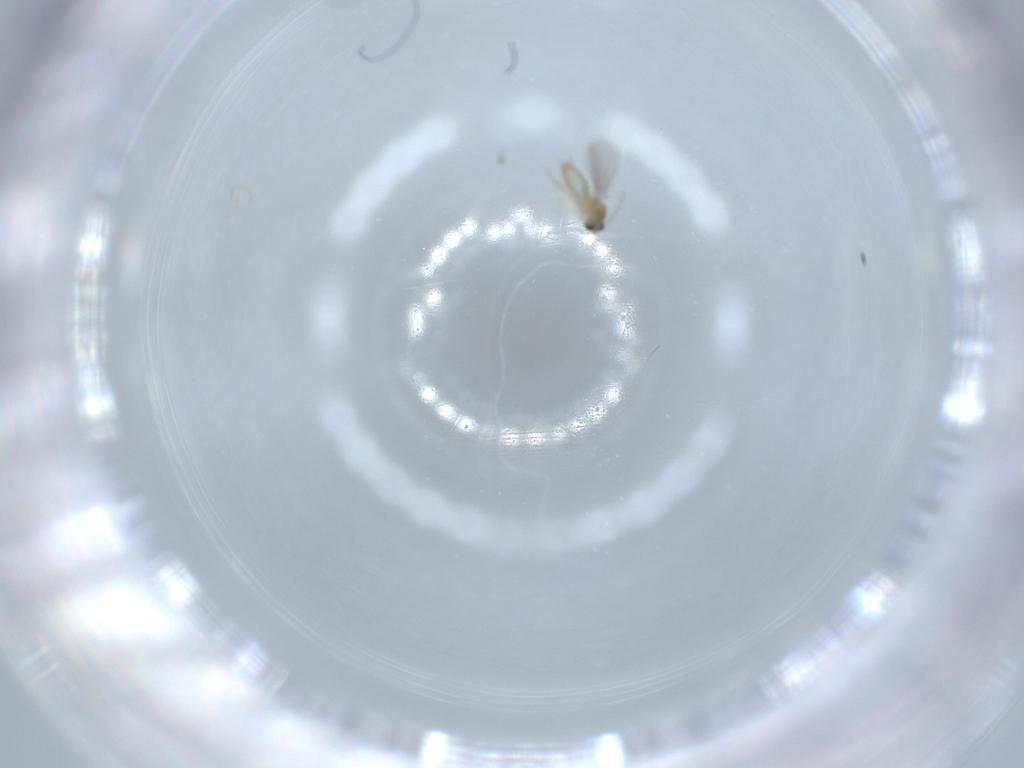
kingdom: Animalia
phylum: Arthropoda
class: Insecta
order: Diptera
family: Cecidomyiidae
